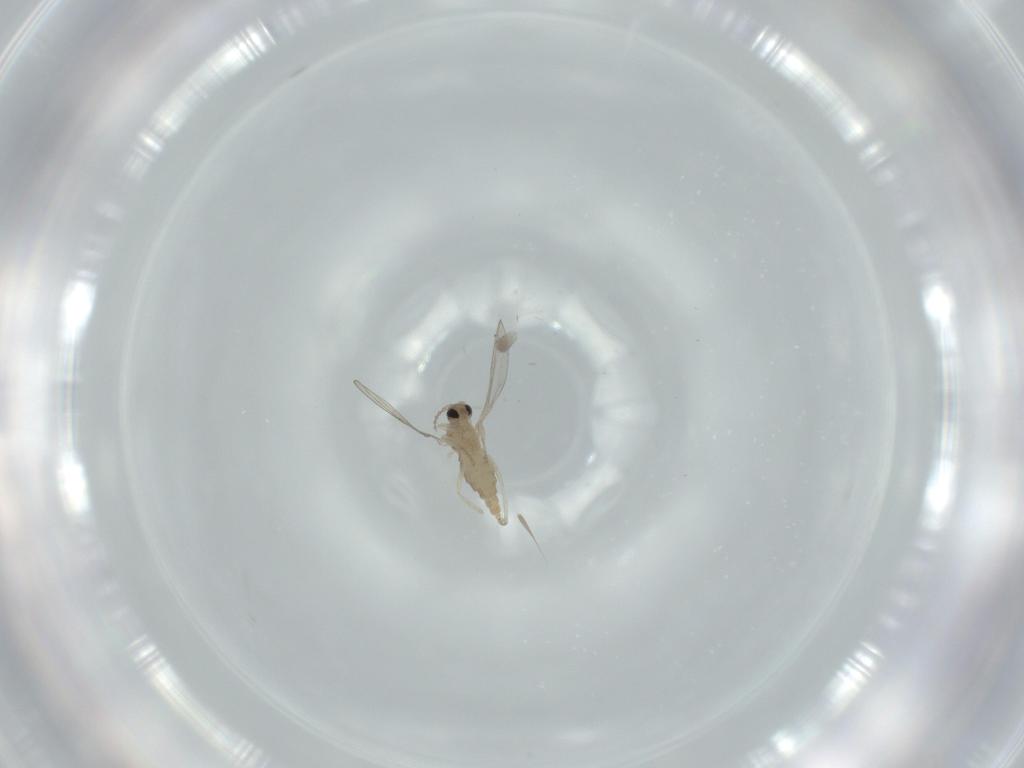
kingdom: Animalia
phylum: Arthropoda
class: Insecta
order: Diptera
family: Cecidomyiidae
